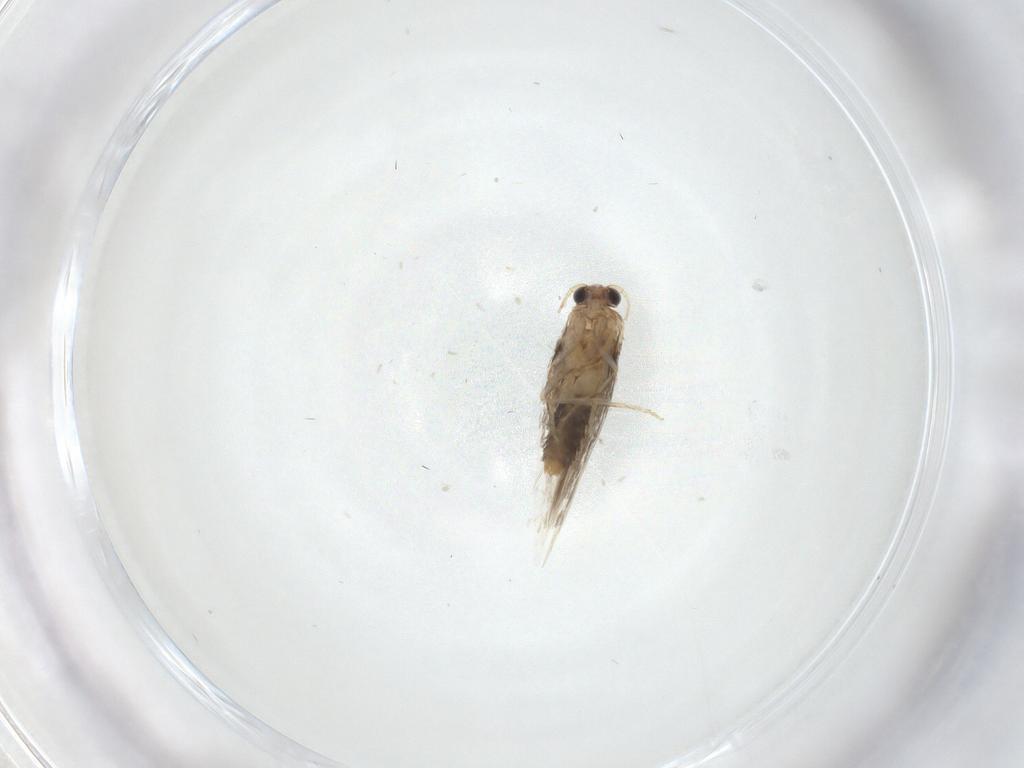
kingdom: Animalia
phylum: Arthropoda
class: Insecta
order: Lepidoptera
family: Nepticulidae
